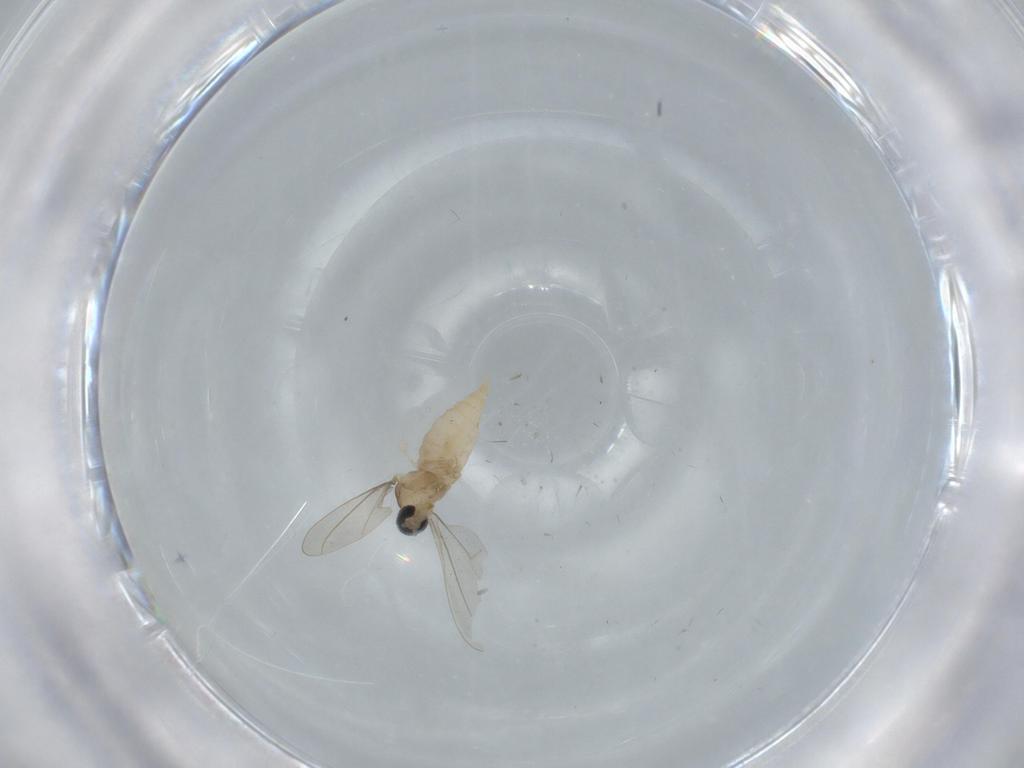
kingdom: Animalia
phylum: Arthropoda
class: Insecta
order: Diptera
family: Cecidomyiidae
